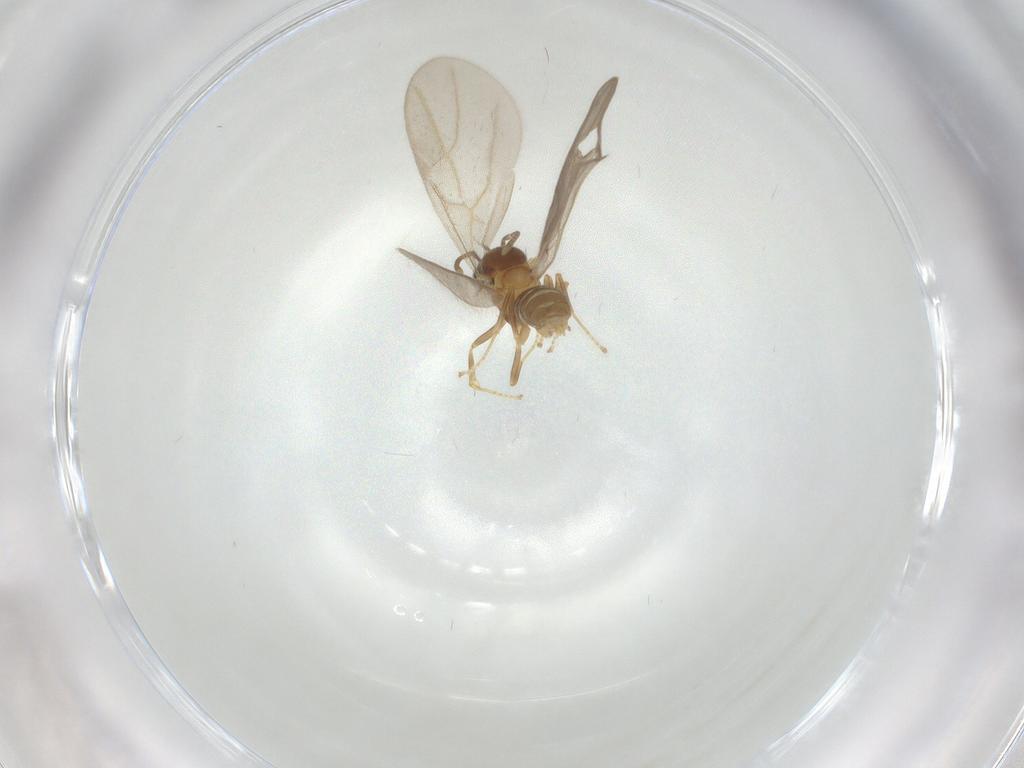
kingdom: Animalia
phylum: Arthropoda
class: Insecta
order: Hymenoptera
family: Formicidae
